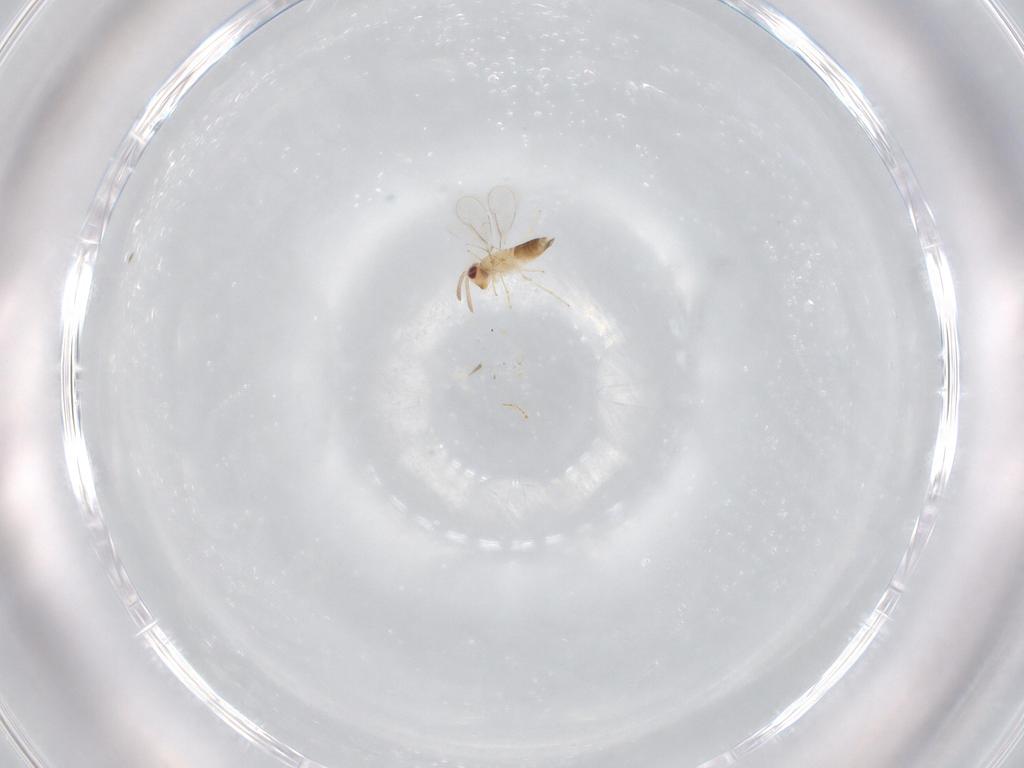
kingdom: Animalia
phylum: Arthropoda
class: Insecta
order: Hymenoptera
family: Aphelinidae
